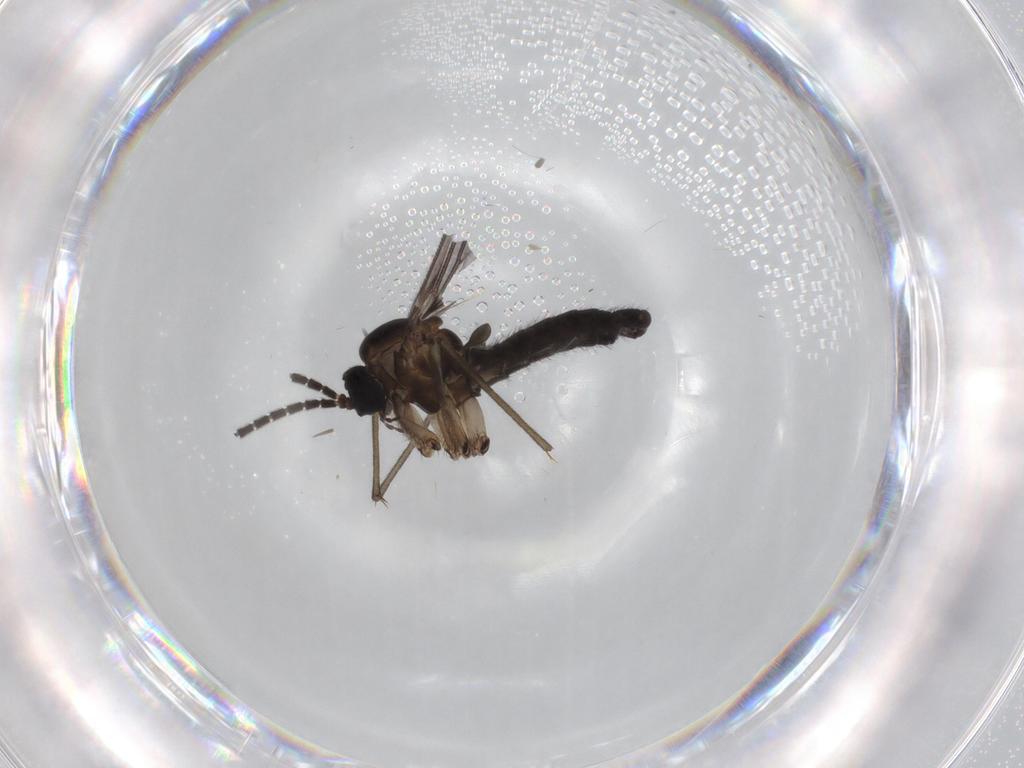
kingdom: Animalia
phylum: Arthropoda
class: Insecta
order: Diptera
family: Sciaridae
